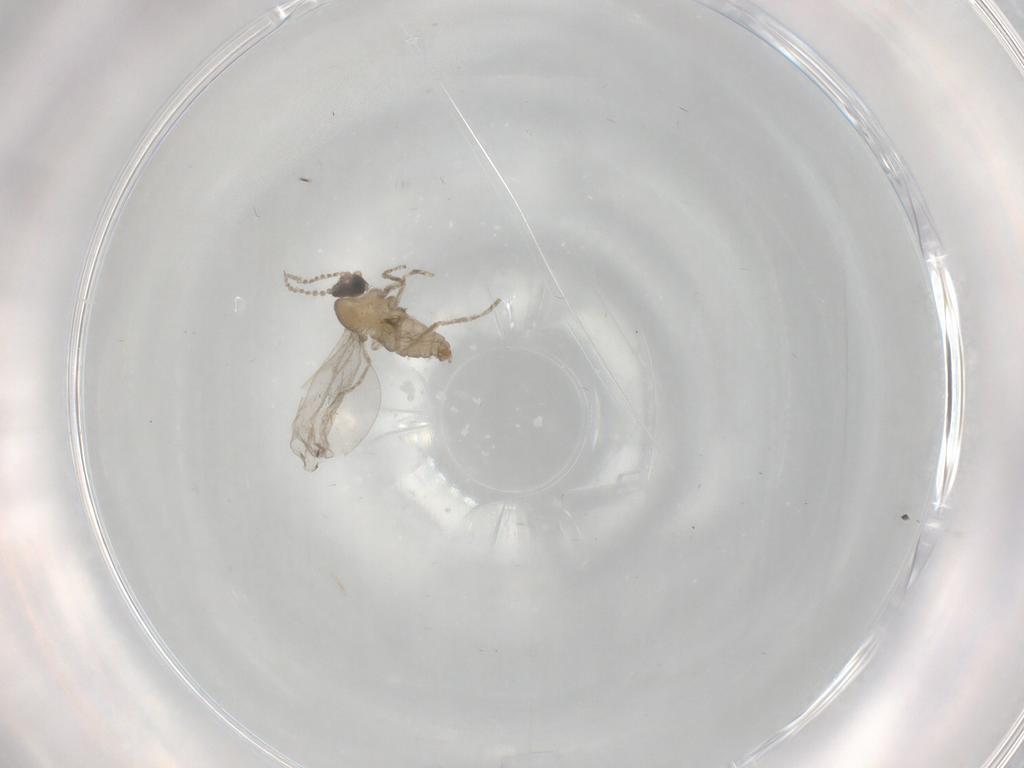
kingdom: Animalia
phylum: Arthropoda
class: Insecta
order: Diptera
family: Cecidomyiidae
